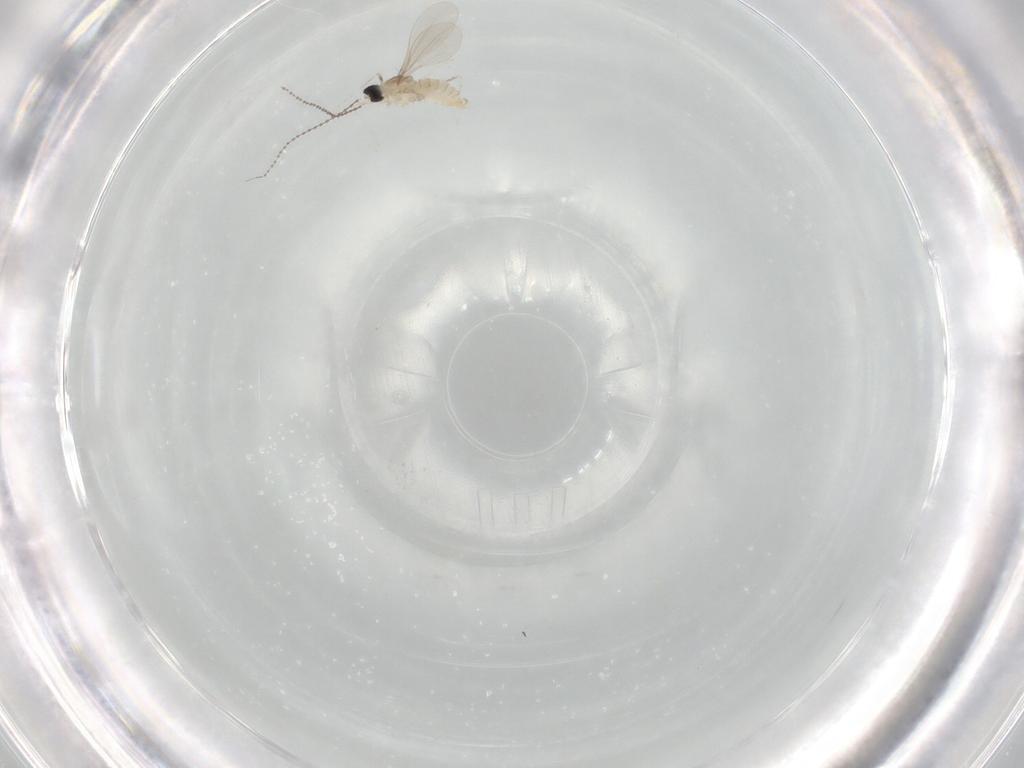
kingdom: Animalia
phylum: Arthropoda
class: Insecta
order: Diptera
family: Cecidomyiidae
